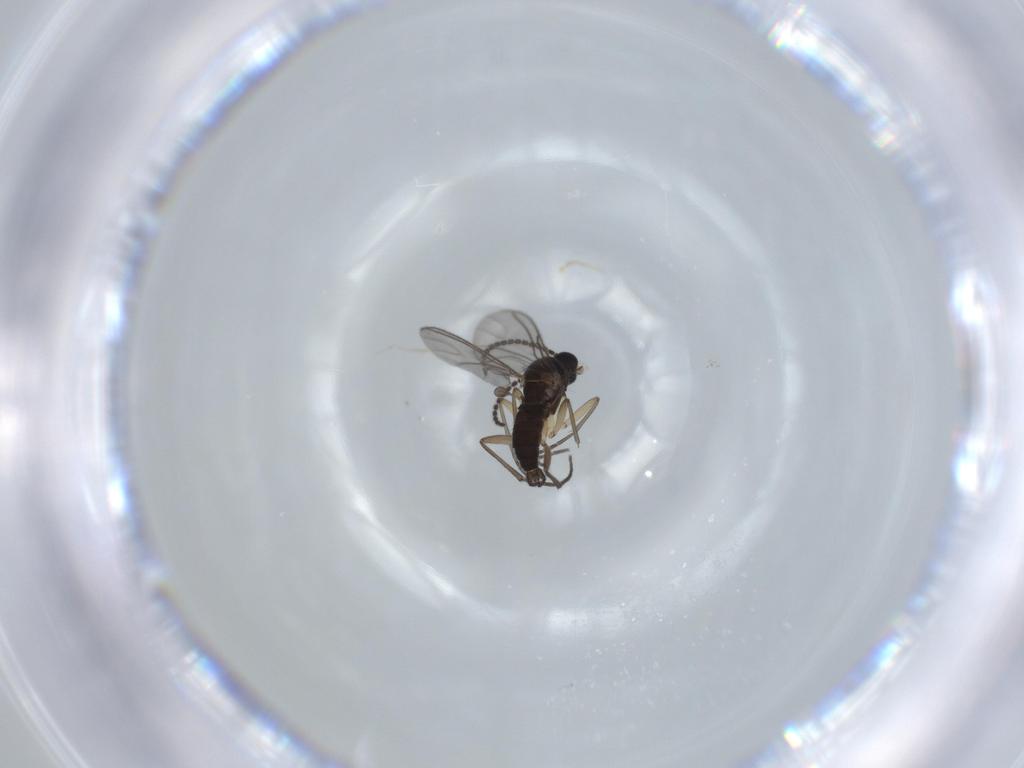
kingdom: Animalia
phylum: Arthropoda
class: Insecta
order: Diptera
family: Sciaridae
